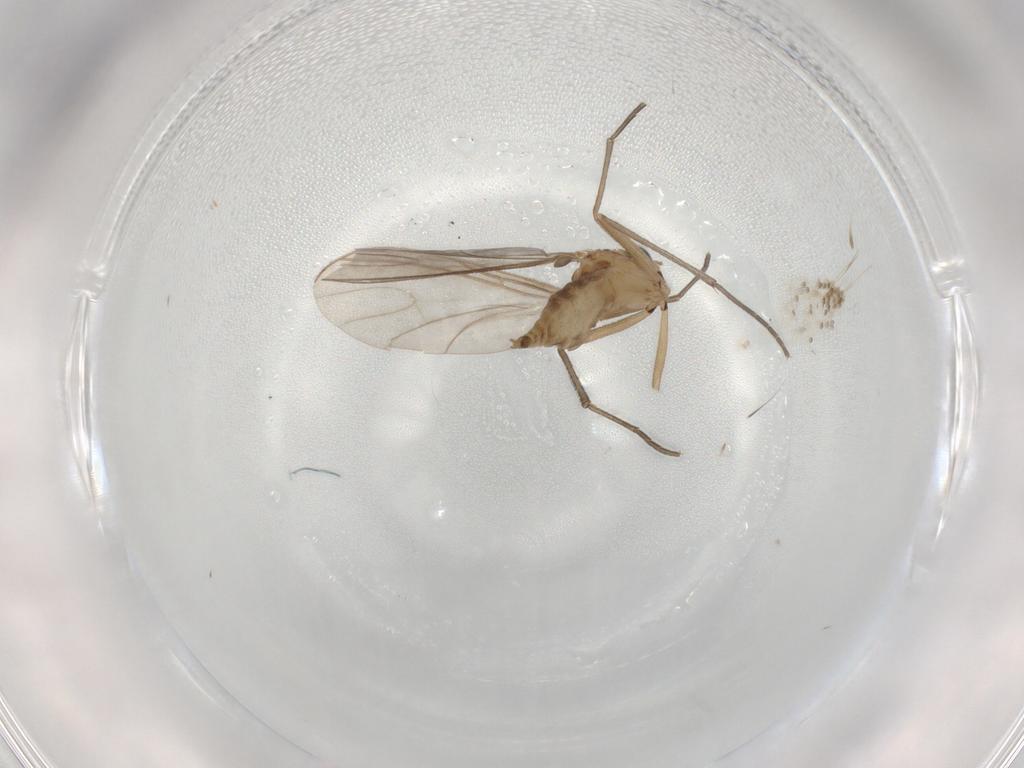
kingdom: Animalia
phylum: Arthropoda
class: Insecta
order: Diptera
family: Sciaridae
